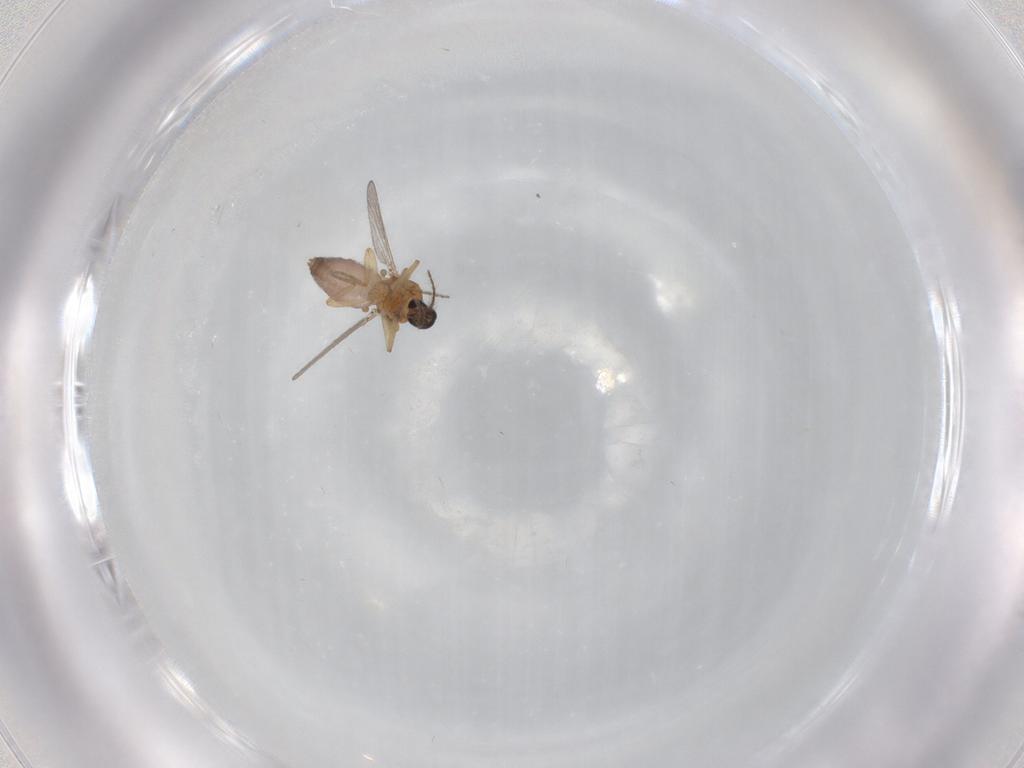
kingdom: Animalia
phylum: Arthropoda
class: Insecta
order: Diptera
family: Ceratopogonidae
